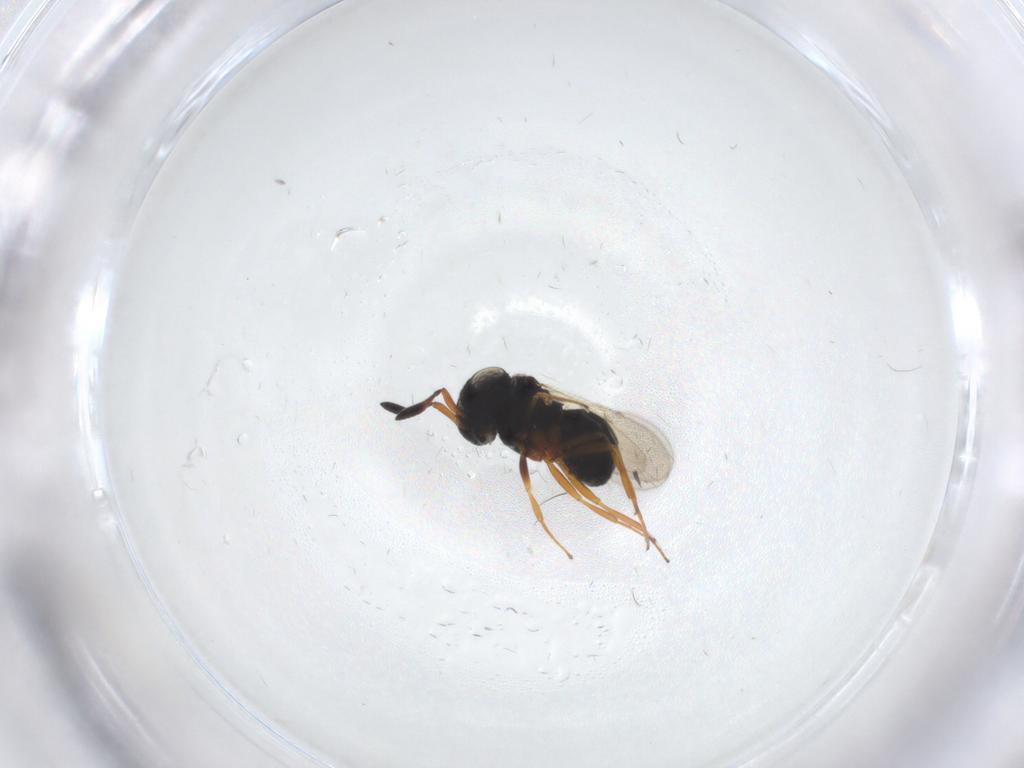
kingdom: Animalia
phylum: Arthropoda
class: Insecta
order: Hymenoptera
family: Scelionidae
